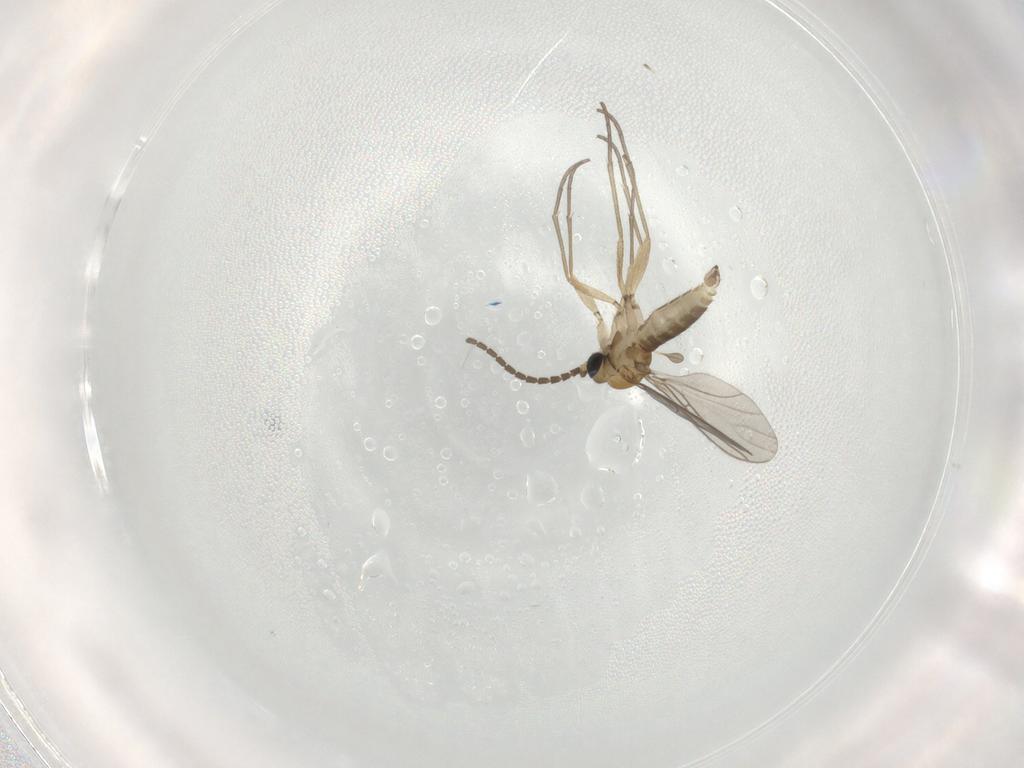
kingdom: Animalia
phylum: Arthropoda
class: Insecta
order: Diptera
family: Sciaridae
